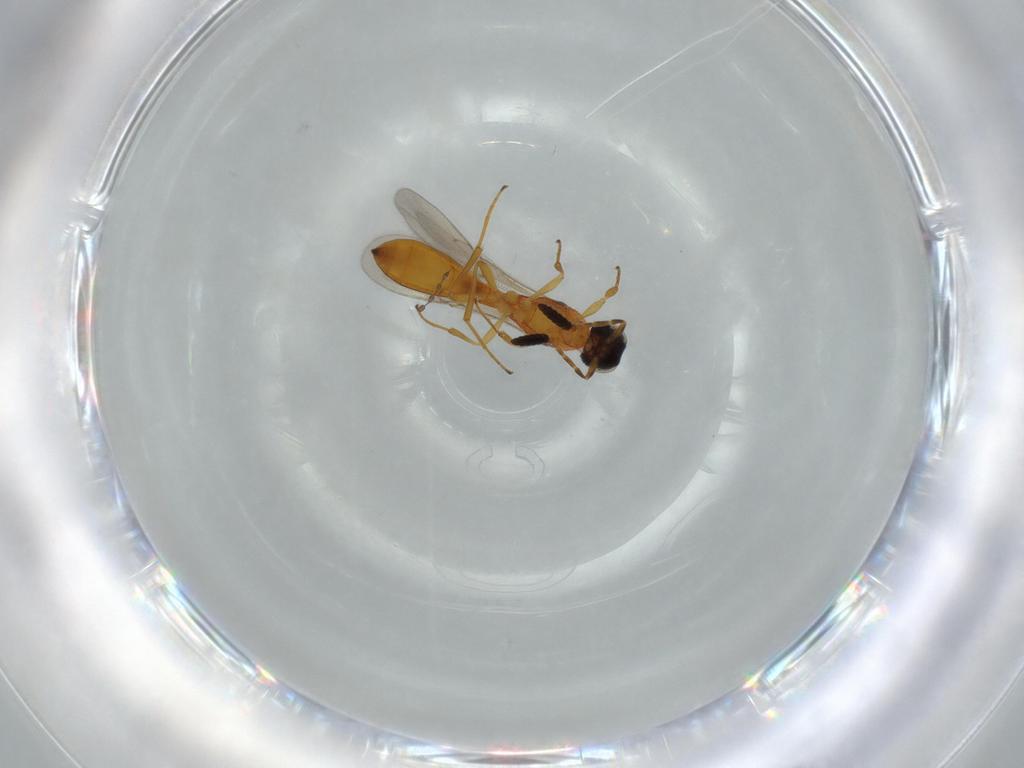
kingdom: Animalia
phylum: Arthropoda
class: Insecta
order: Hymenoptera
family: Scelionidae
